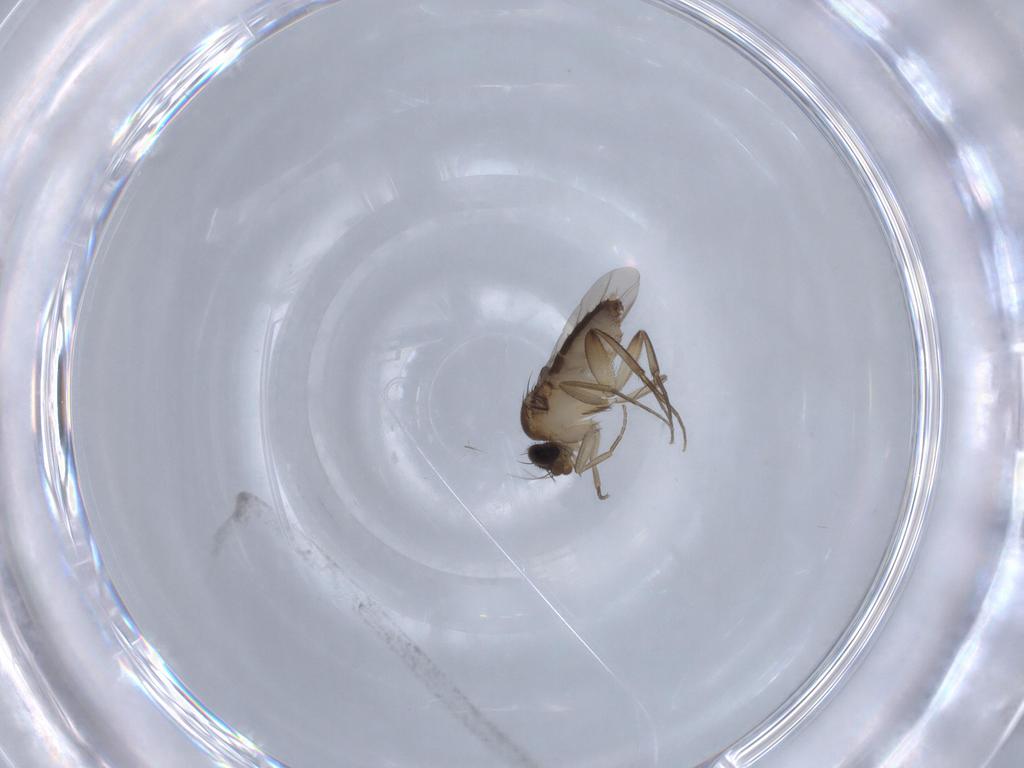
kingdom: Animalia
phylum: Arthropoda
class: Insecta
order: Diptera
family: Phoridae
